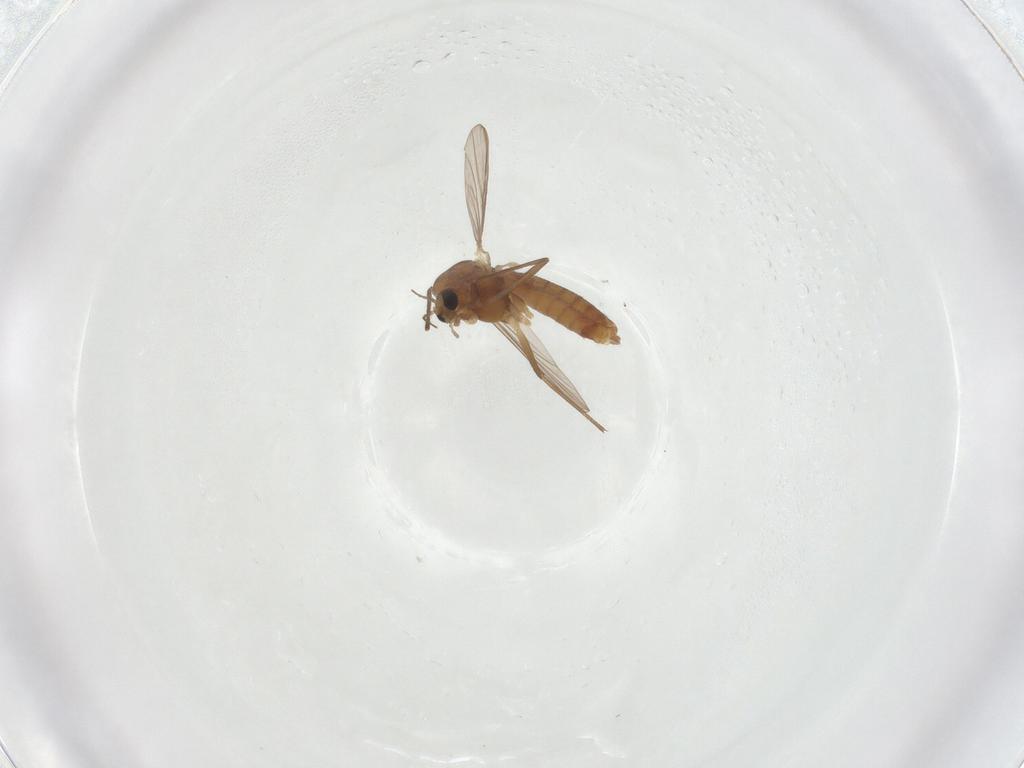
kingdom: Animalia
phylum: Arthropoda
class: Insecta
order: Diptera
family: Chironomidae
